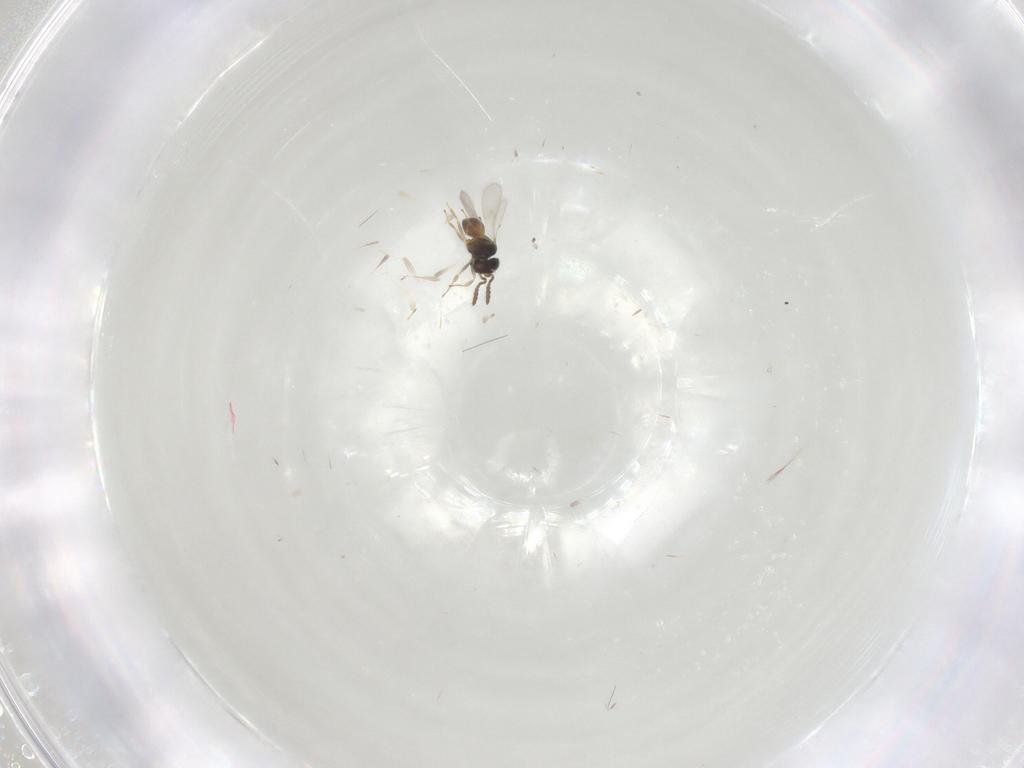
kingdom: Animalia
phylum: Arthropoda
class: Insecta
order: Hymenoptera
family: Scelionidae
